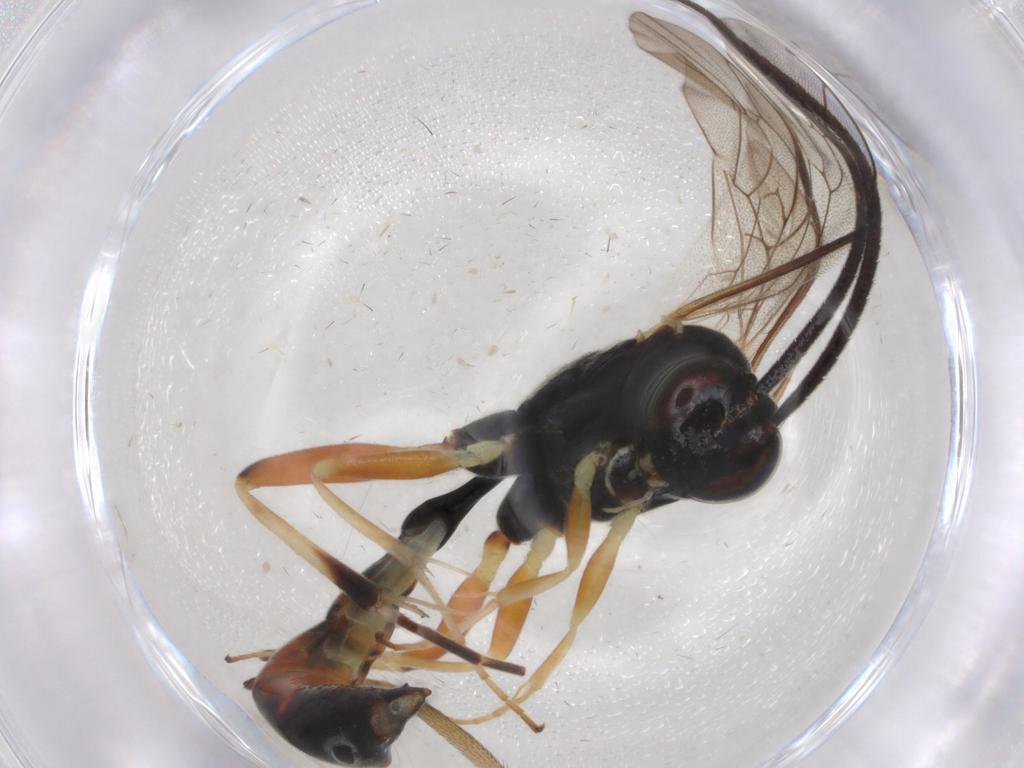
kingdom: Animalia
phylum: Arthropoda
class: Insecta
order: Hymenoptera
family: Ichneumonidae
